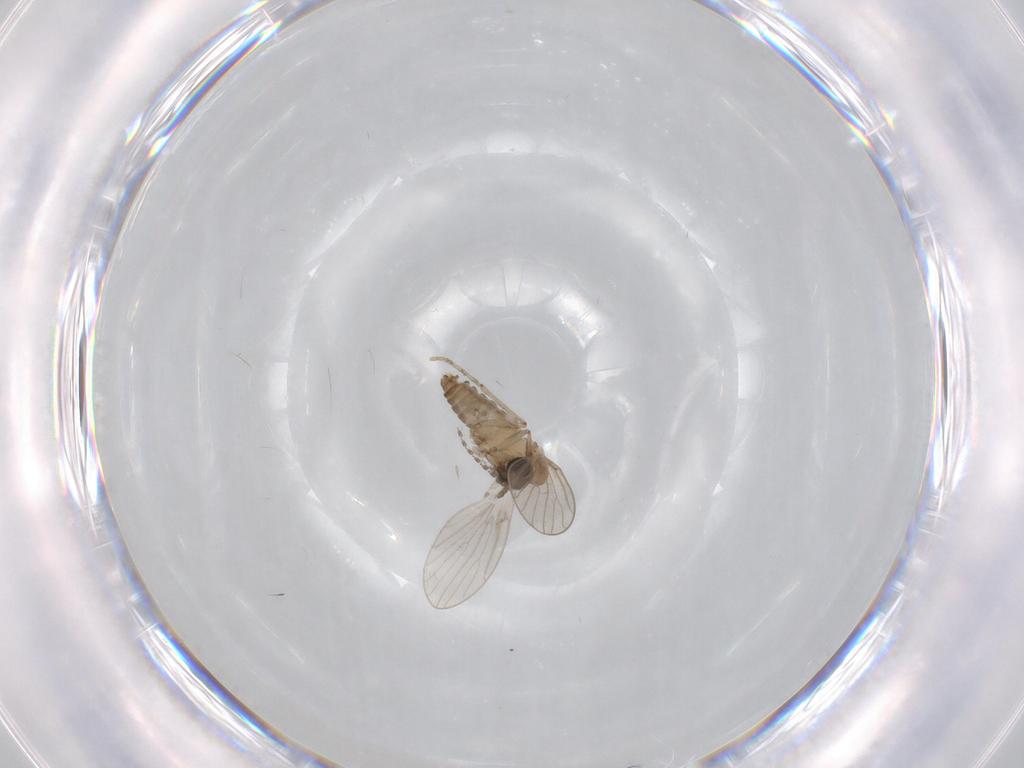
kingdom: Animalia
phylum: Arthropoda
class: Insecta
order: Diptera
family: Psychodidae
